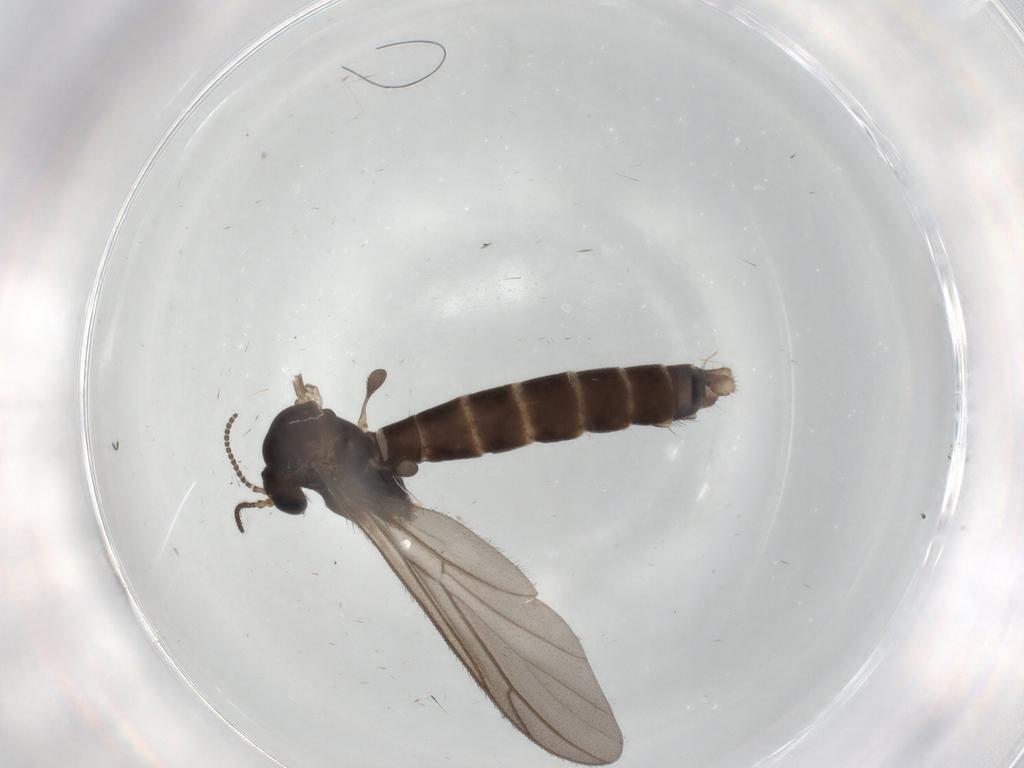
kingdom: Animalia
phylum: Arthropoda
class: Insecta
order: Diptera
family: Ditomyiidae
